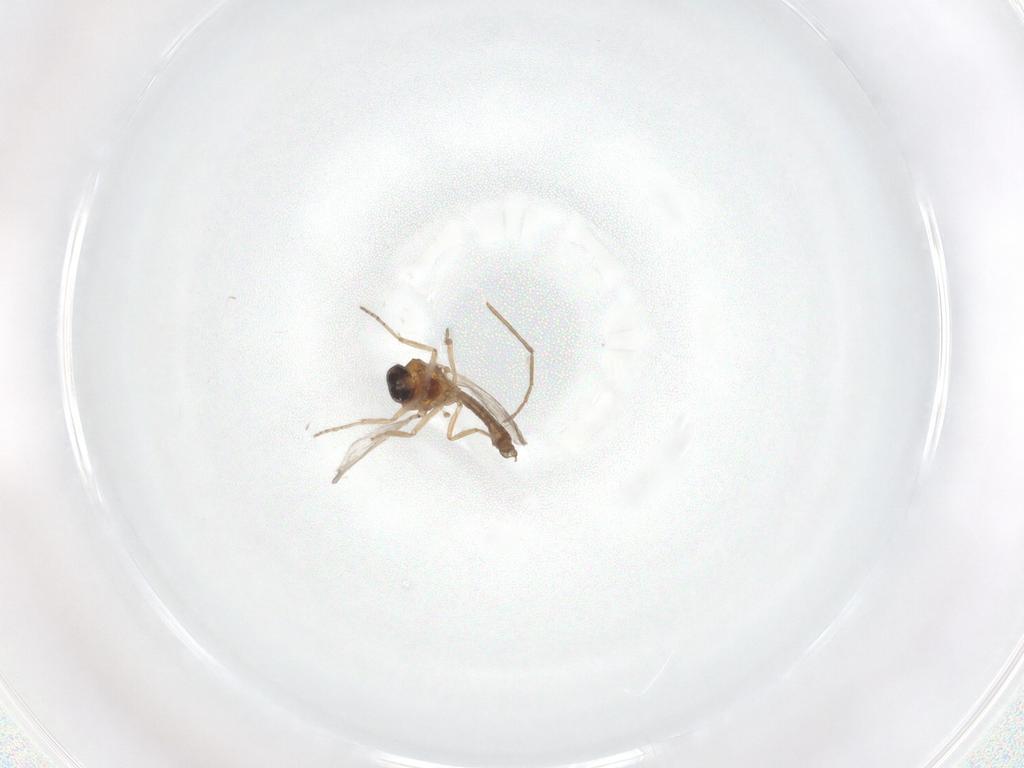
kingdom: Animalia
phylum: Arthropoda
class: Insecta
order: Diptera
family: Ceratopogonidae
